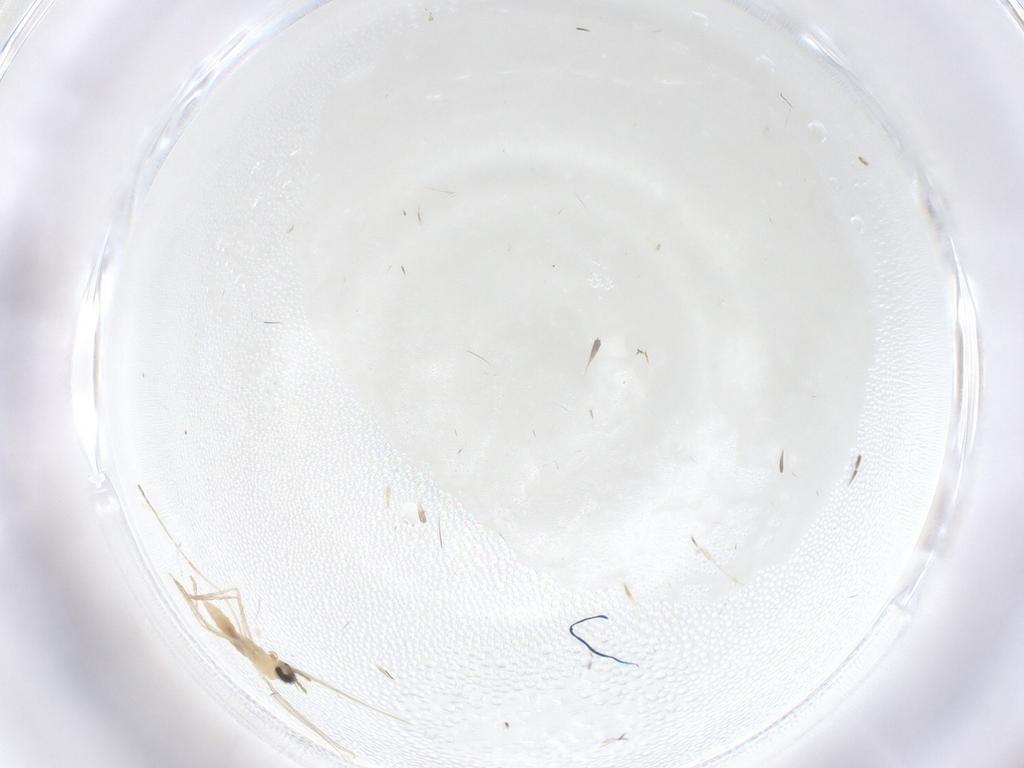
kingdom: Animalia
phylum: Arthropoda
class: Insecta
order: Diptera
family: Cecidomyiidae
